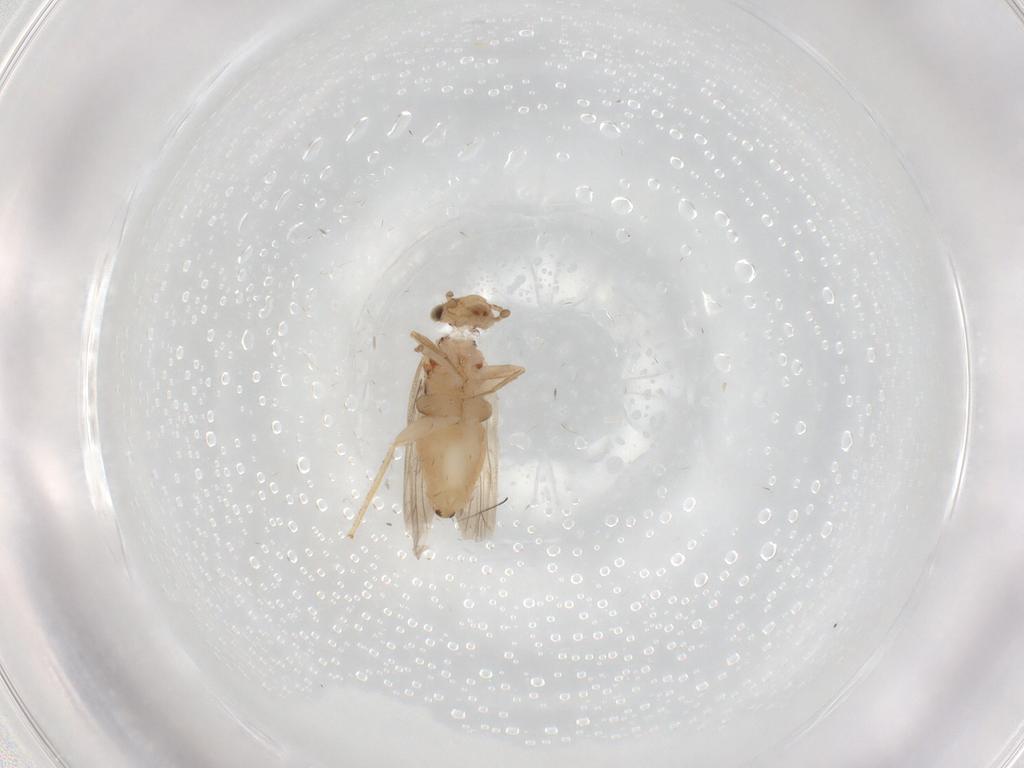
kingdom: Animalia
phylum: Arthropoda
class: Insecta
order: Psocodea
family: Lepidopsocidae
